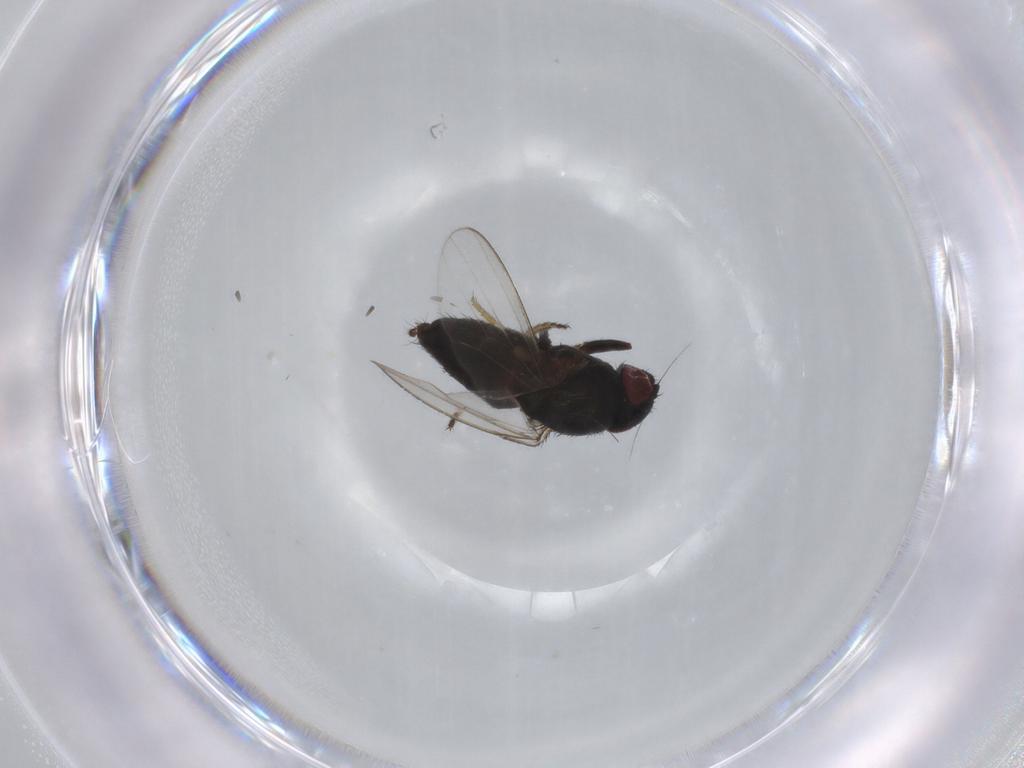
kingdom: Animalia
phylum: Arthropoda
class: Insecta
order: Diptera
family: Milichiidae
